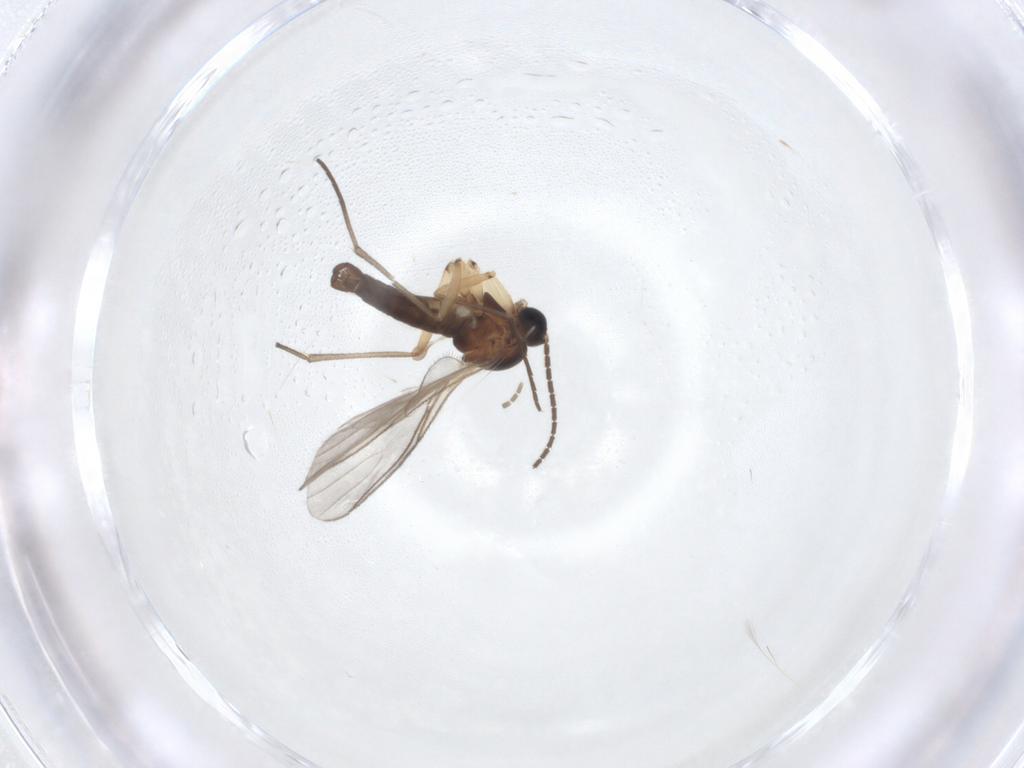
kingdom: Animalia
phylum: Arthropoda
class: Insecta
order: Diptera
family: Sciaridae
